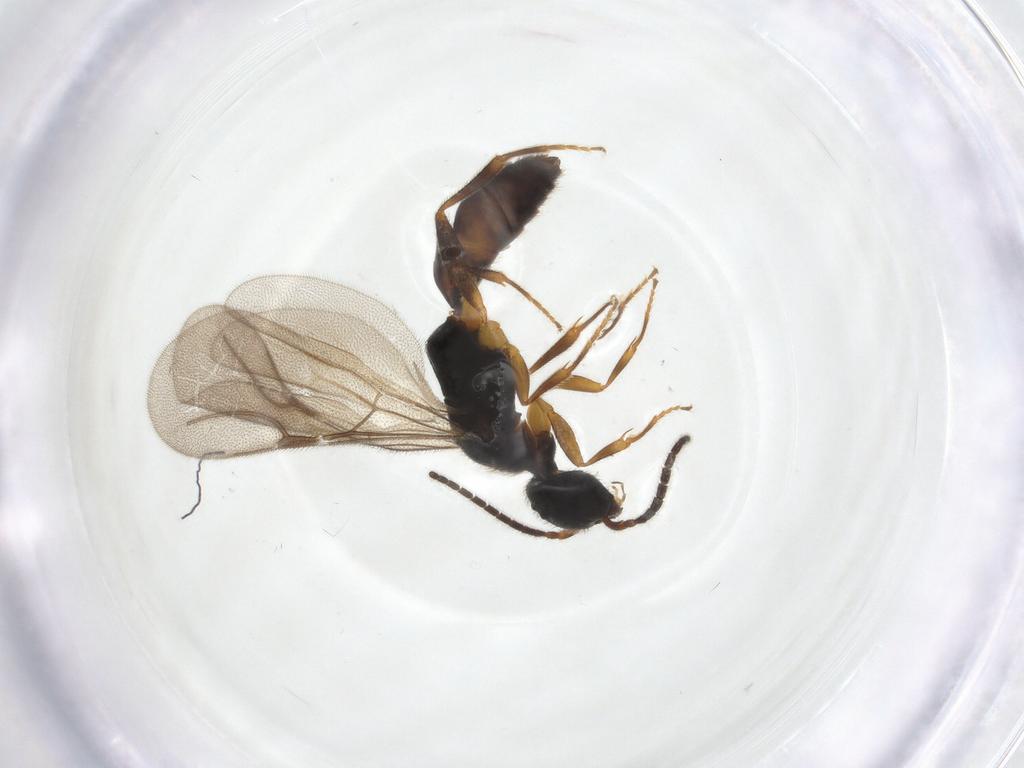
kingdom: Animalia
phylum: Arthropoda
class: Insecta
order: Hymenoptera
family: Bethylidae
